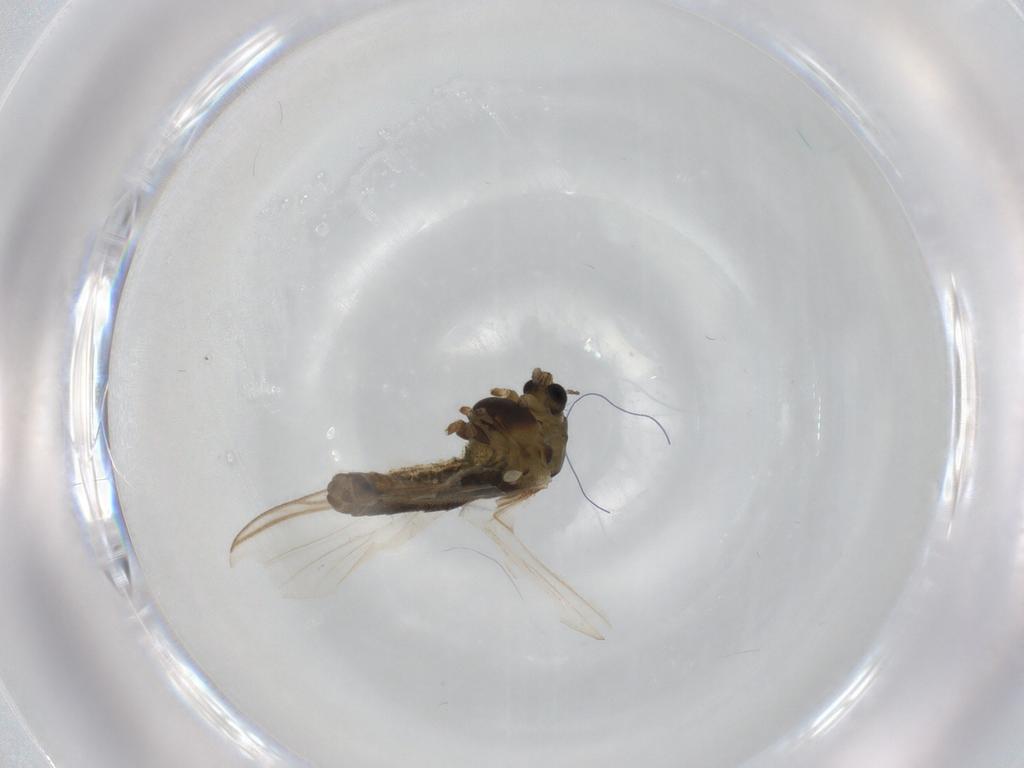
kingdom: Animalia
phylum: Arthropoda
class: Insecta
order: Diptera
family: Chironomidae
